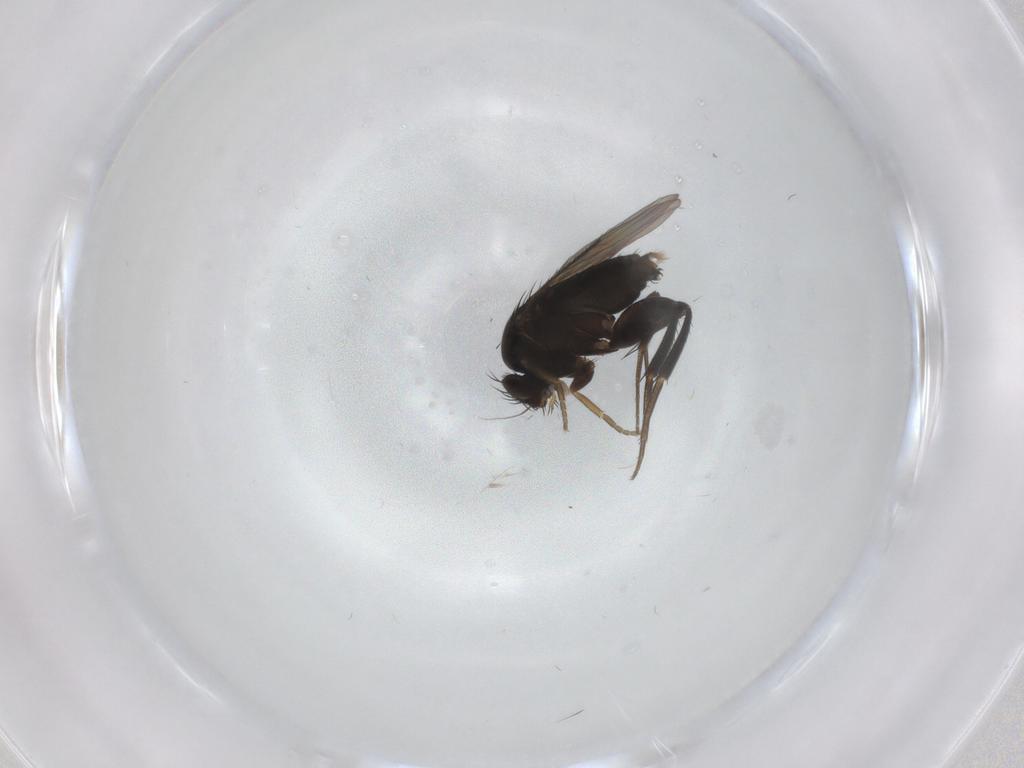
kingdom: Animalia
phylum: Arthropoda
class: Insecta
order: Diptera
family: Phoridae
